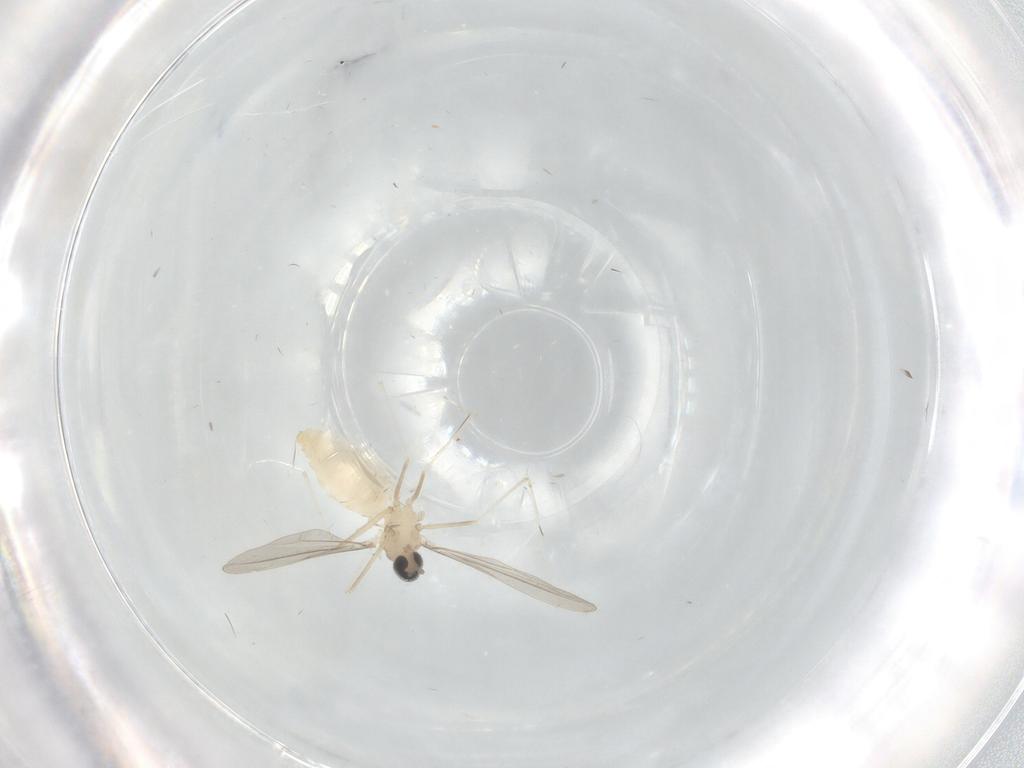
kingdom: Animalia
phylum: Arthropoda
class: Insecta
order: Diptera
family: Cecidomyiidae
